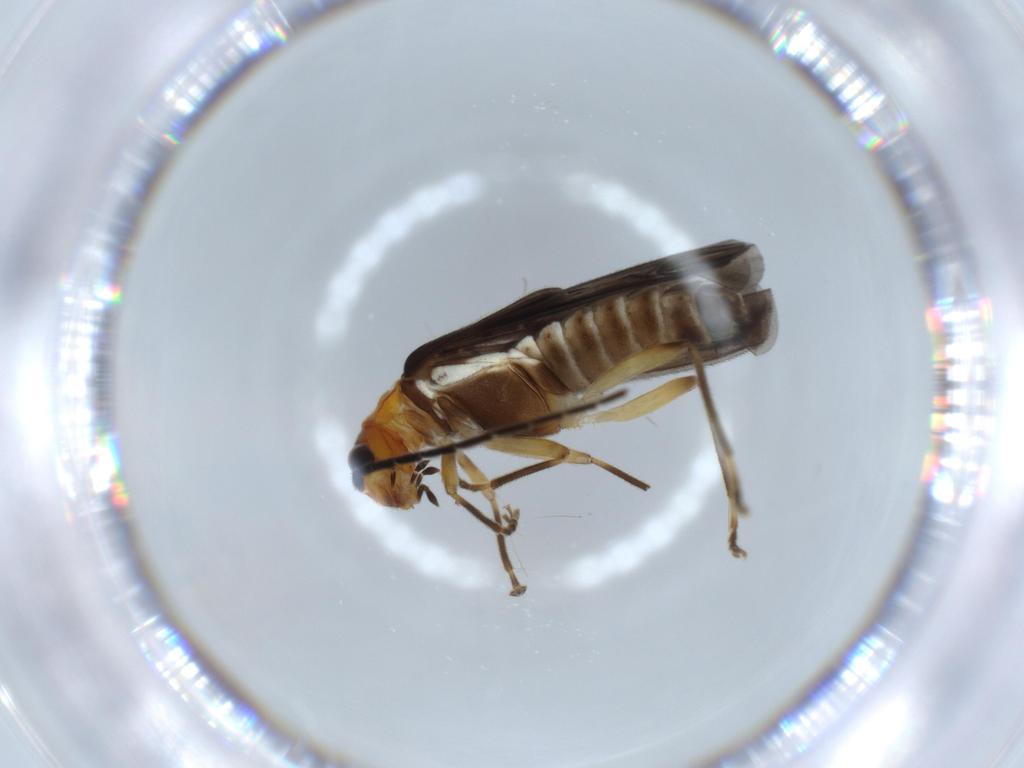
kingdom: Animalia
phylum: Arthropoda
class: Insecta
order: Coleoptera
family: Cantharidae
